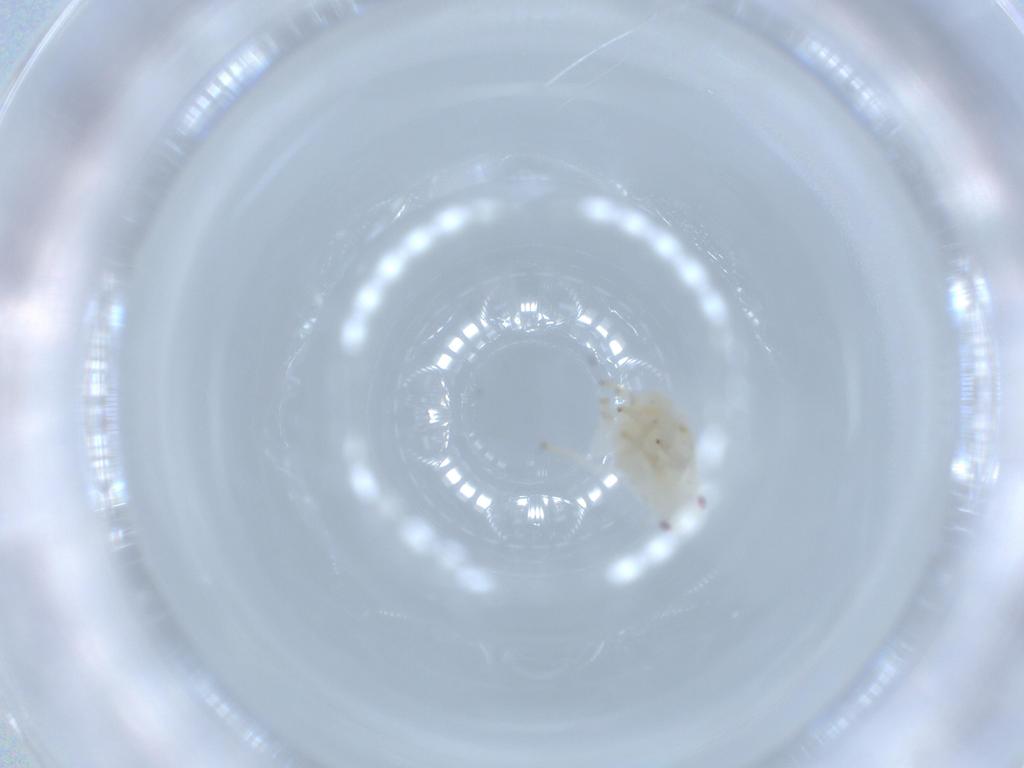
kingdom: Animalia
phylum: Arthropoda
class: Insecta
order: Hemiptera
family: Flatidae
